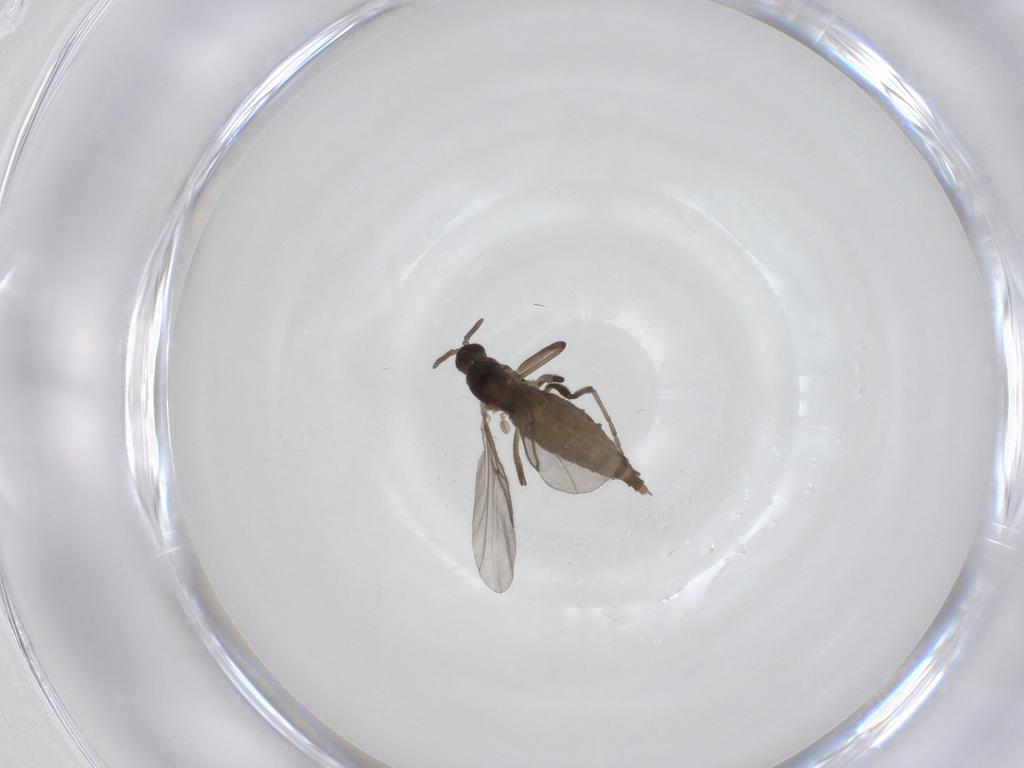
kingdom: Animalia
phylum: Arthropoda
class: Insecta
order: Diptera
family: Cecidomyiidae
